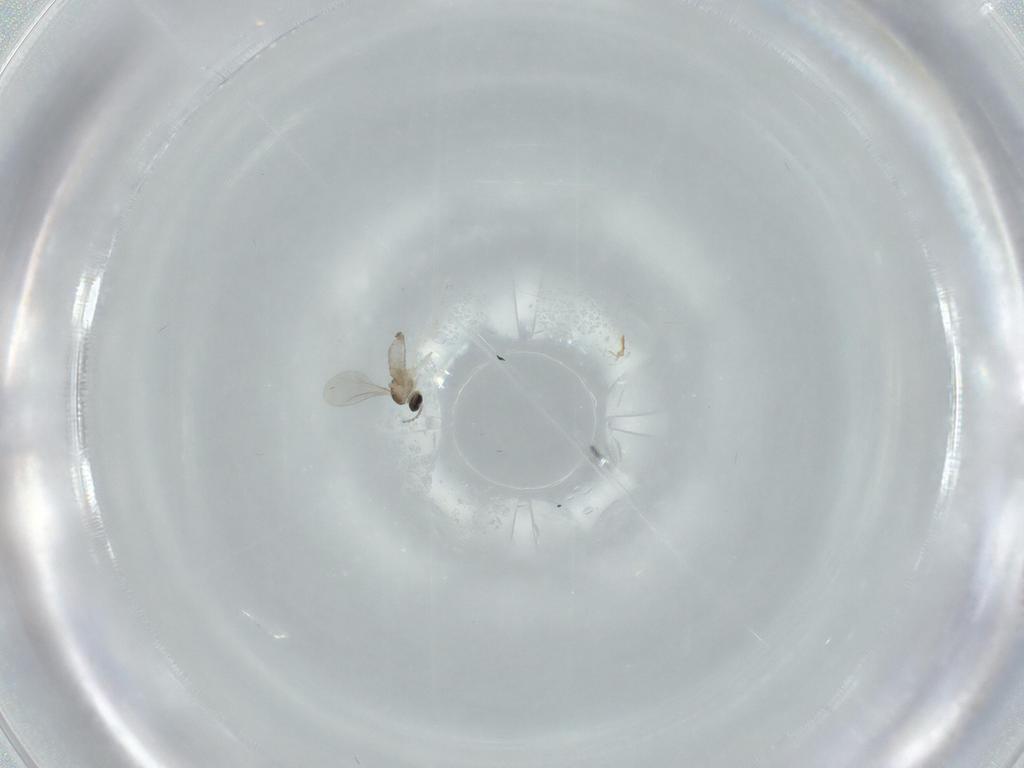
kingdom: Animalia
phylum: Arthropoda
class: Insecta
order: Diptera
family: Cecidomyiidae
